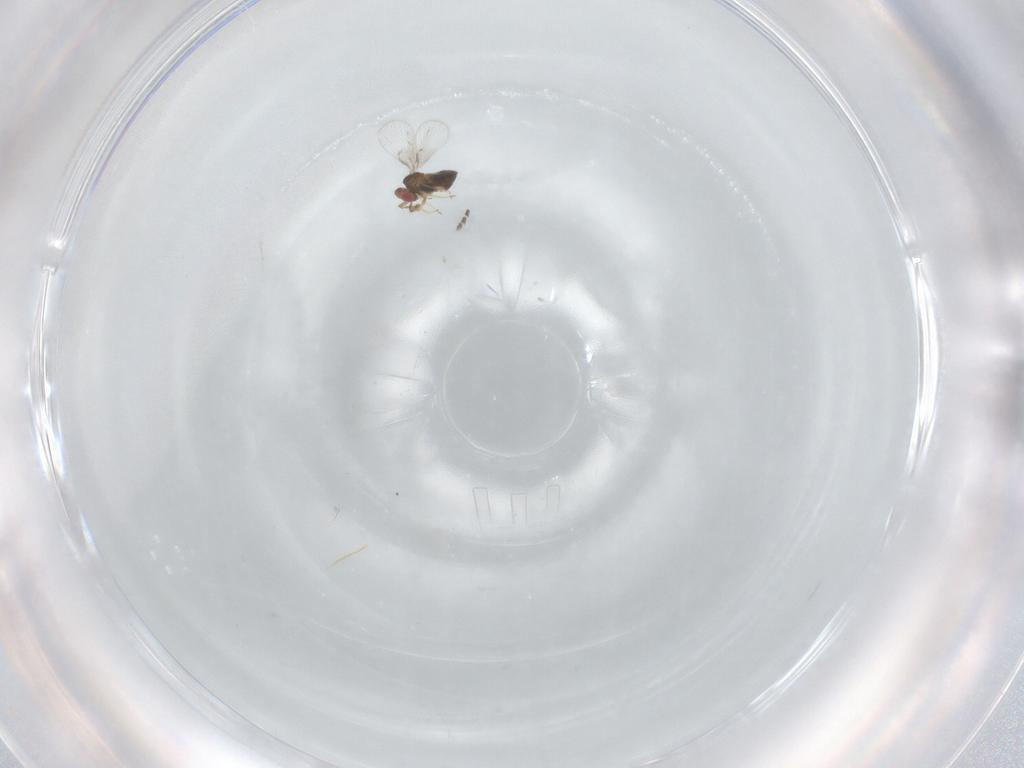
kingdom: Animalia
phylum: Arthropoda
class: Insecta
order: Hymenoptera
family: Trichogrammatidae
